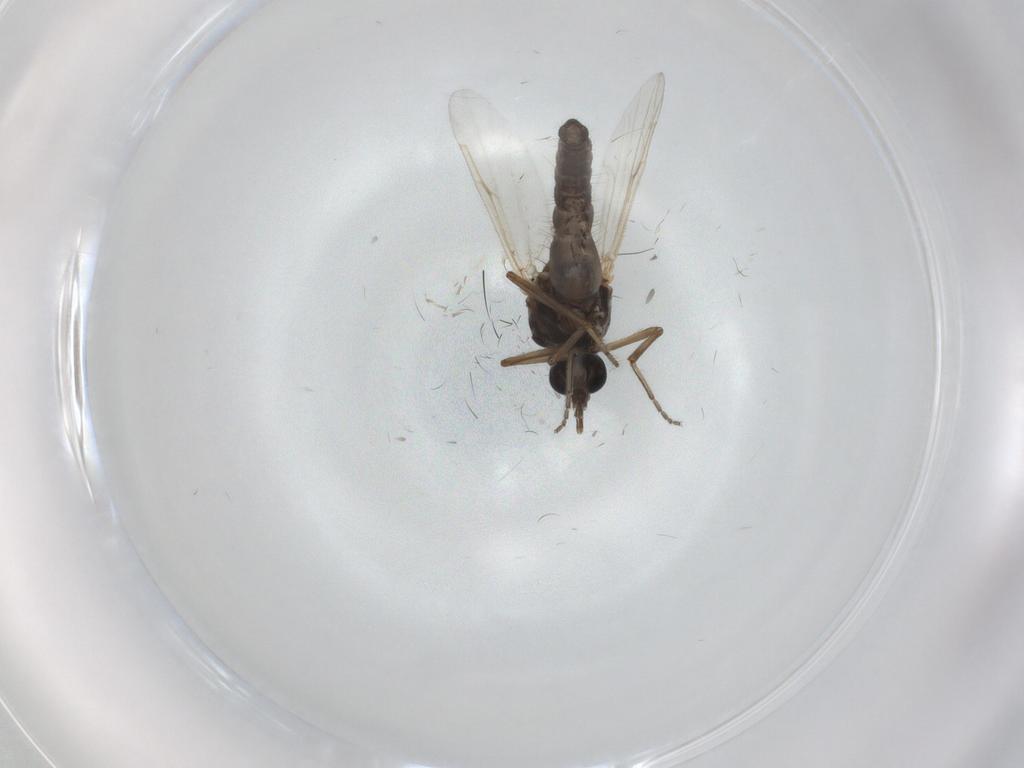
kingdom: Animalia
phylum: Arthropoda
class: Insecta
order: Diptera
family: Ceratopogonidae
